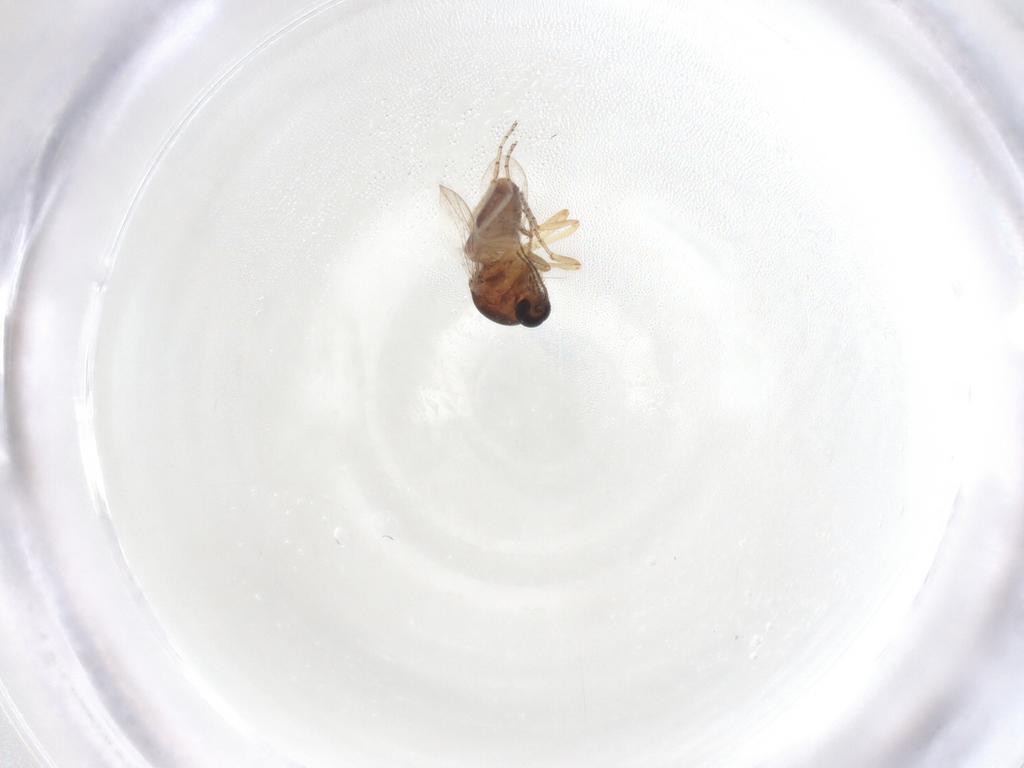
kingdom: Animalia
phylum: Arthropoda
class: Insecta
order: Diptera
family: Ceratopogonidae
